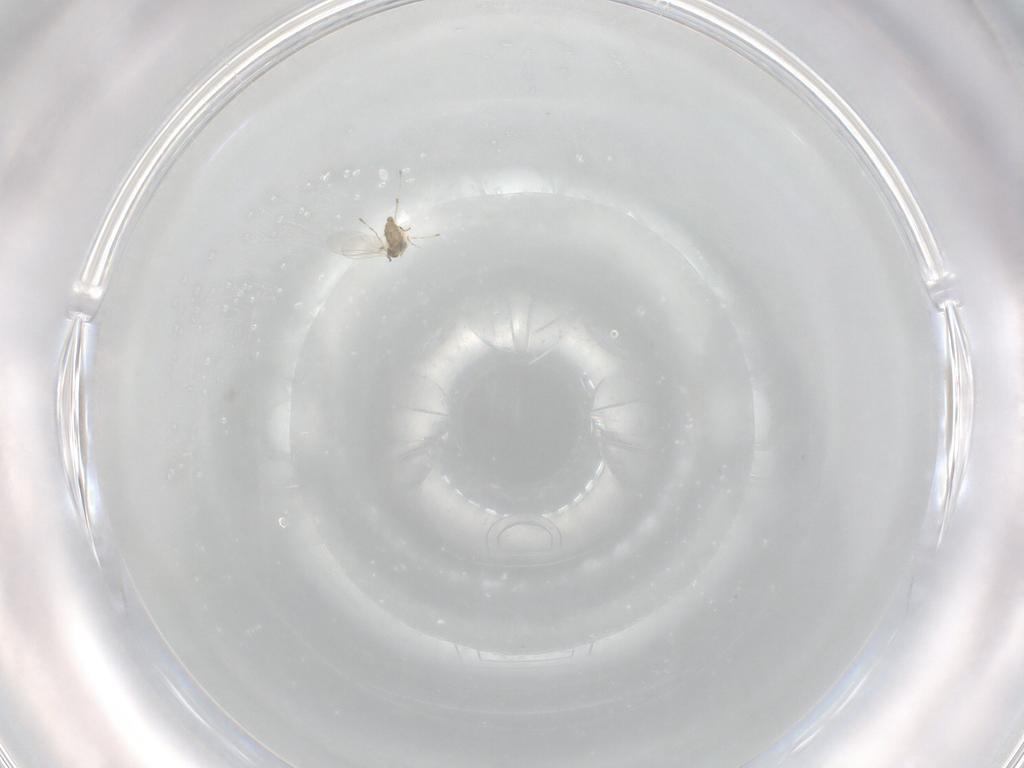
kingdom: Animalia
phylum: Arthropoda
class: Insecta
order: Diptera
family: Cecidomyiidae
